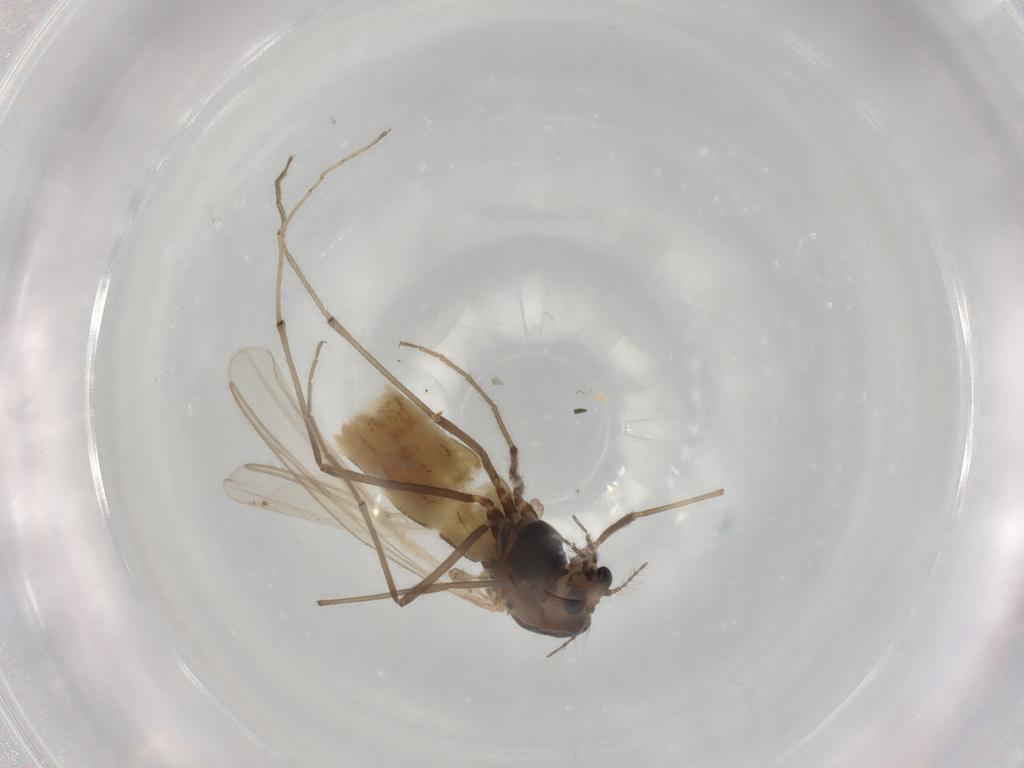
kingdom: Animalia
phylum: Arthropoda
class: Insecta
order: Diptera
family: Chironomidae
